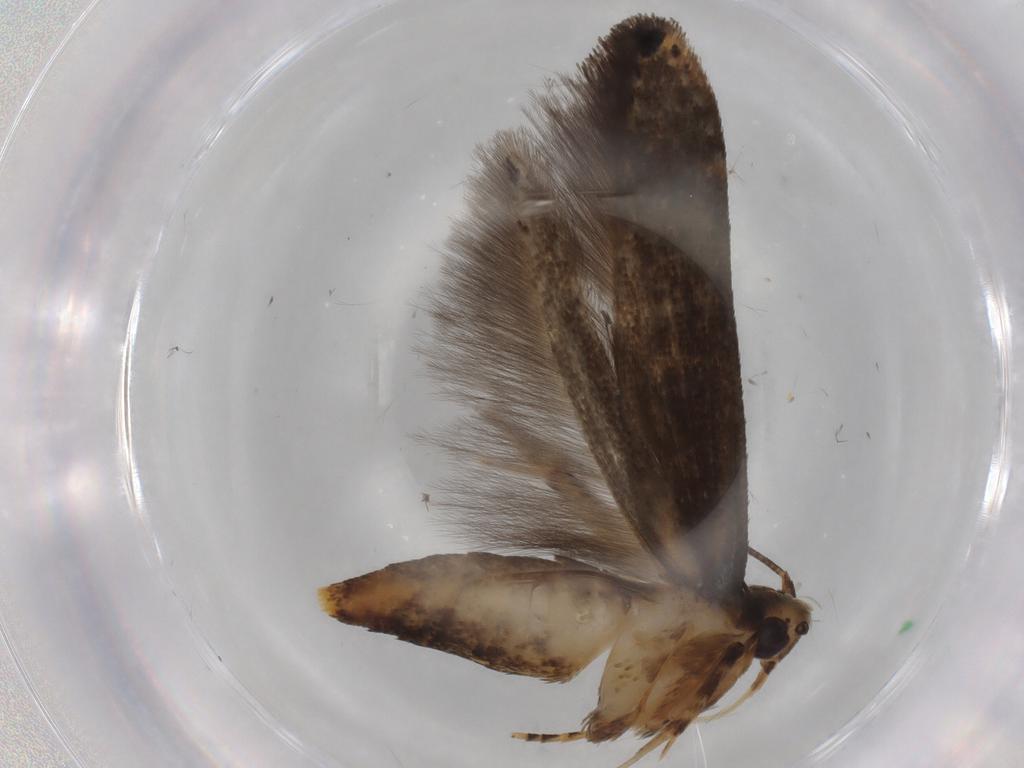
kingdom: Animalia
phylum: Arthropoda
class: Insecta
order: Lepidoptera
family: Cosmopterigidae
